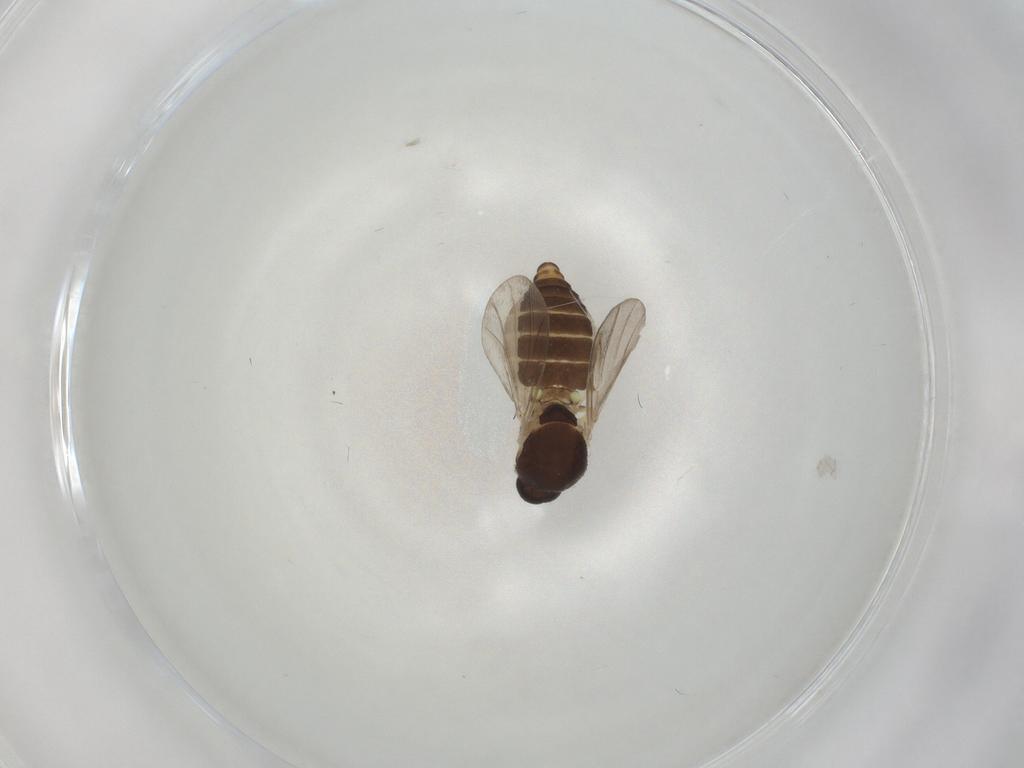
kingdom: Animalia
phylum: Arthropoda
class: Insecta
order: Diptera
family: Ceratopogonidae
